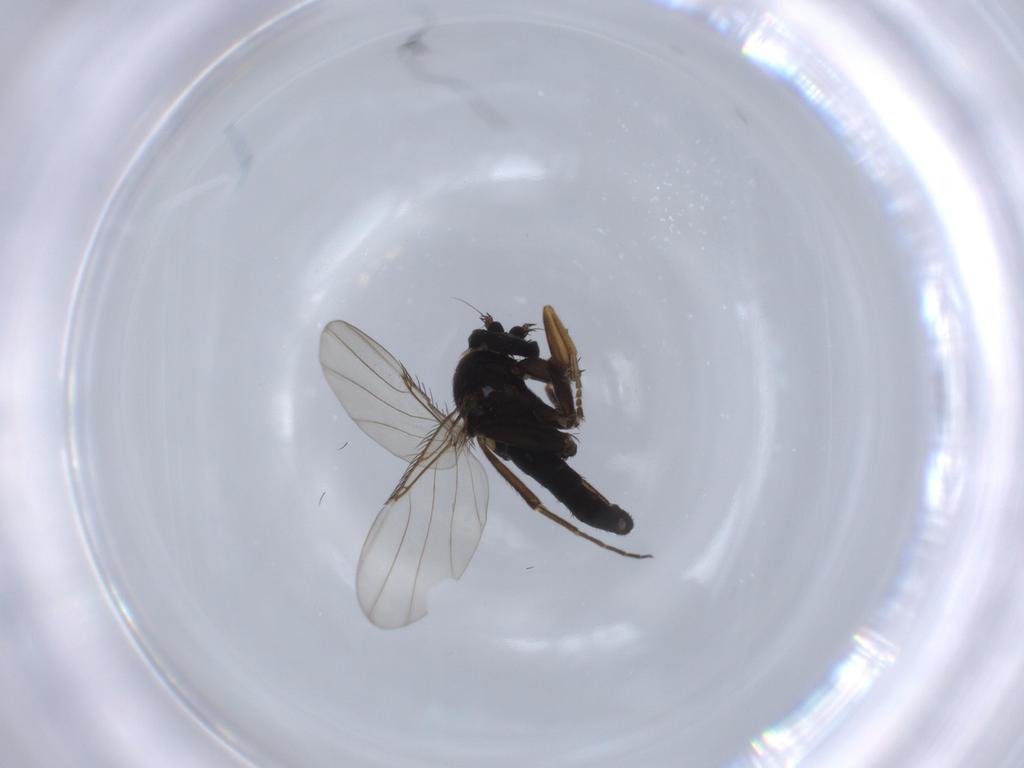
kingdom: Animalia
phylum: Arthropoda
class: Insecta
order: Diptera
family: Phoridae
